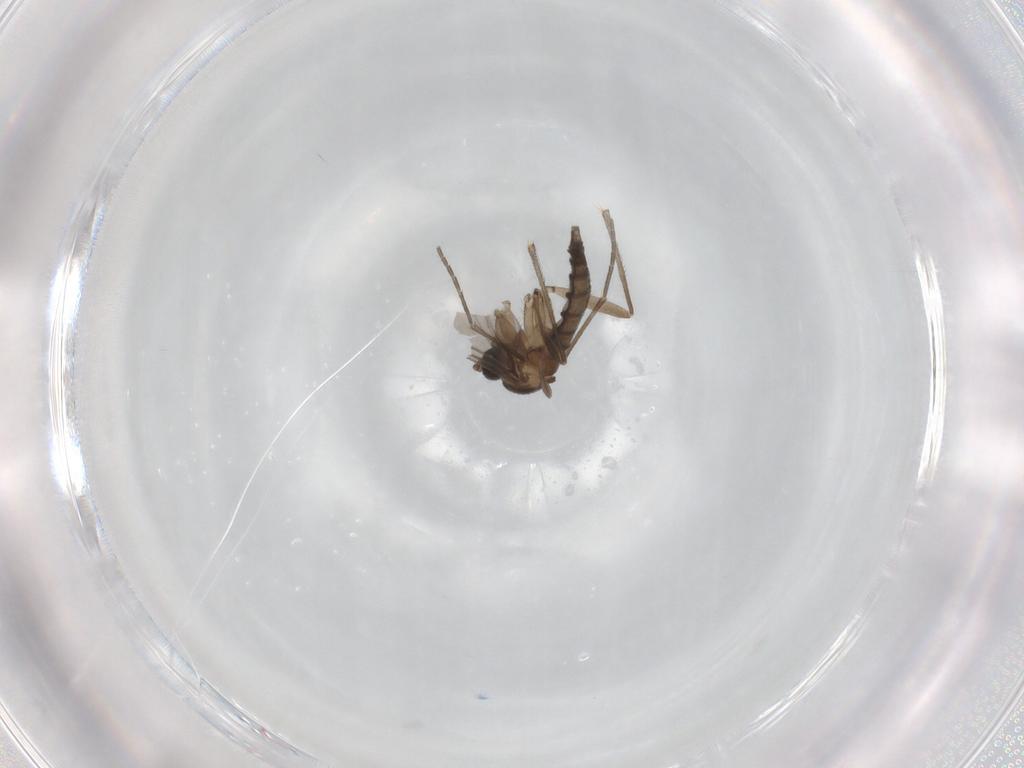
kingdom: Animalia
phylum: Arthropoda
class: Insecta
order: Diptera
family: Sciaridae
